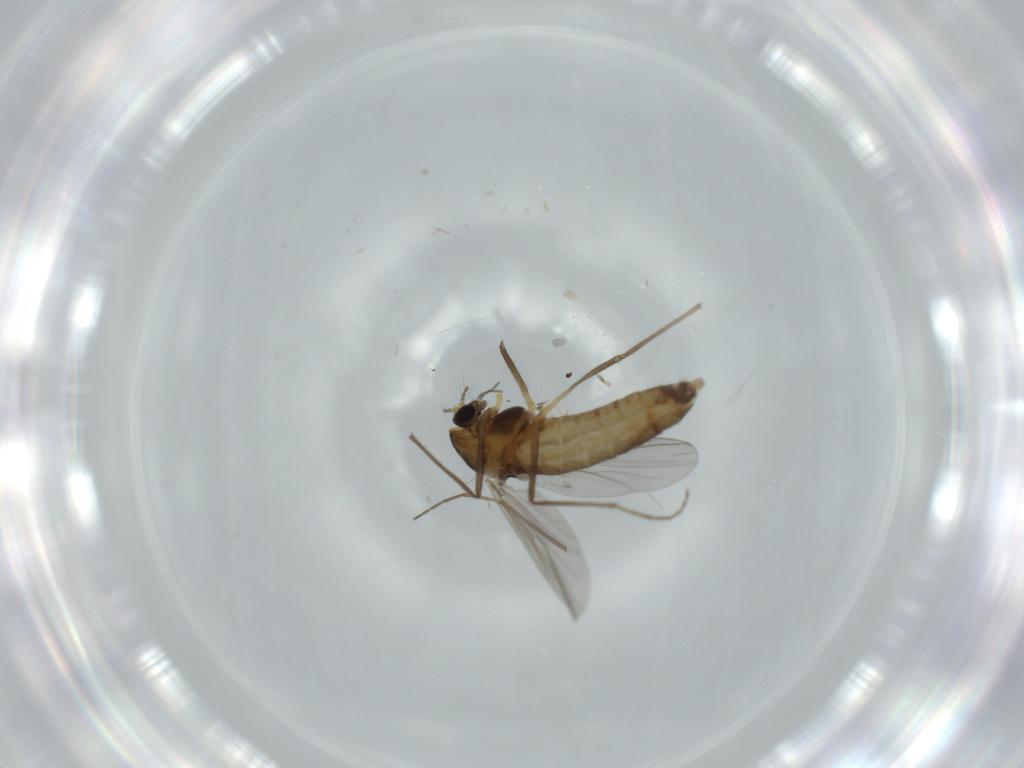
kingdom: Animalia
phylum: Arthropoda
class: Insecta
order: Diptera
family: Chironomidae
